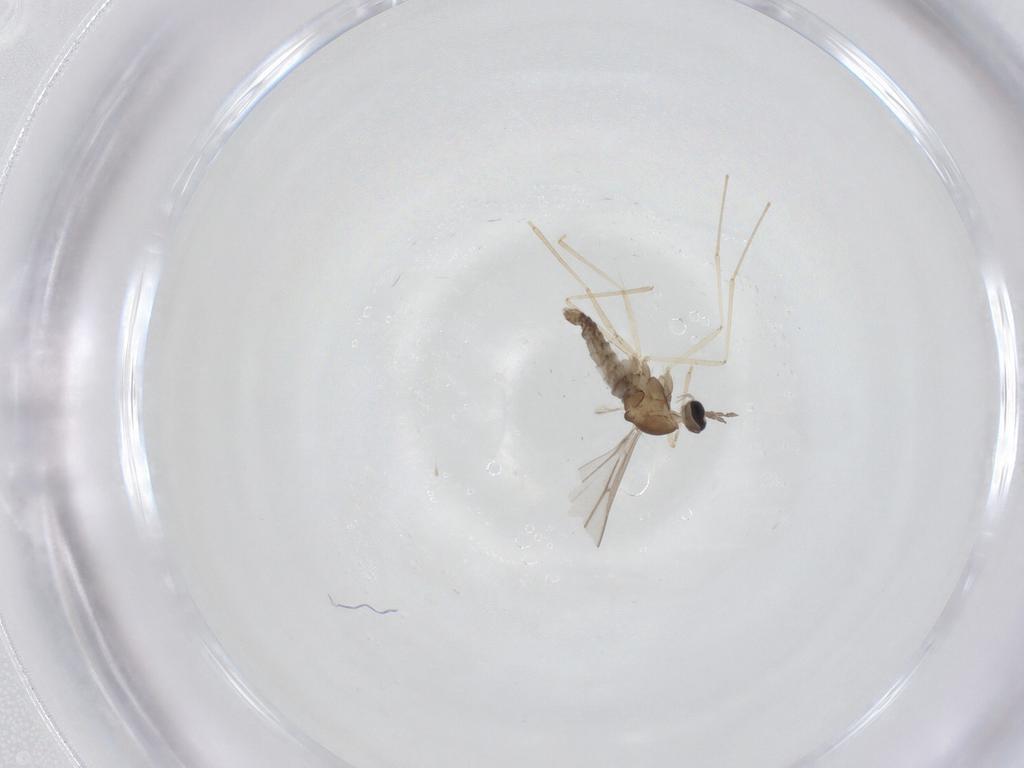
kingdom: Animalia
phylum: Arthropoda
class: Insecta
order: Diptera
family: Cecidomyiidae
